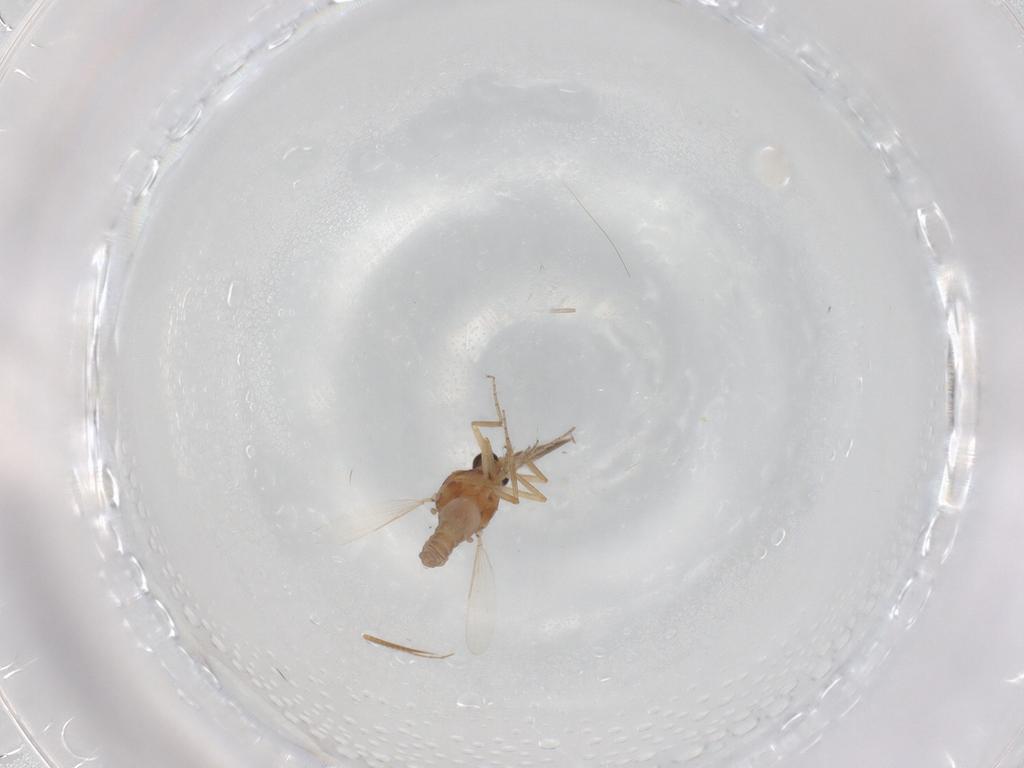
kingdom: Animalia
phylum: Arthropoda
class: Insecta
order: Diptera
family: Ceratopogonidae
